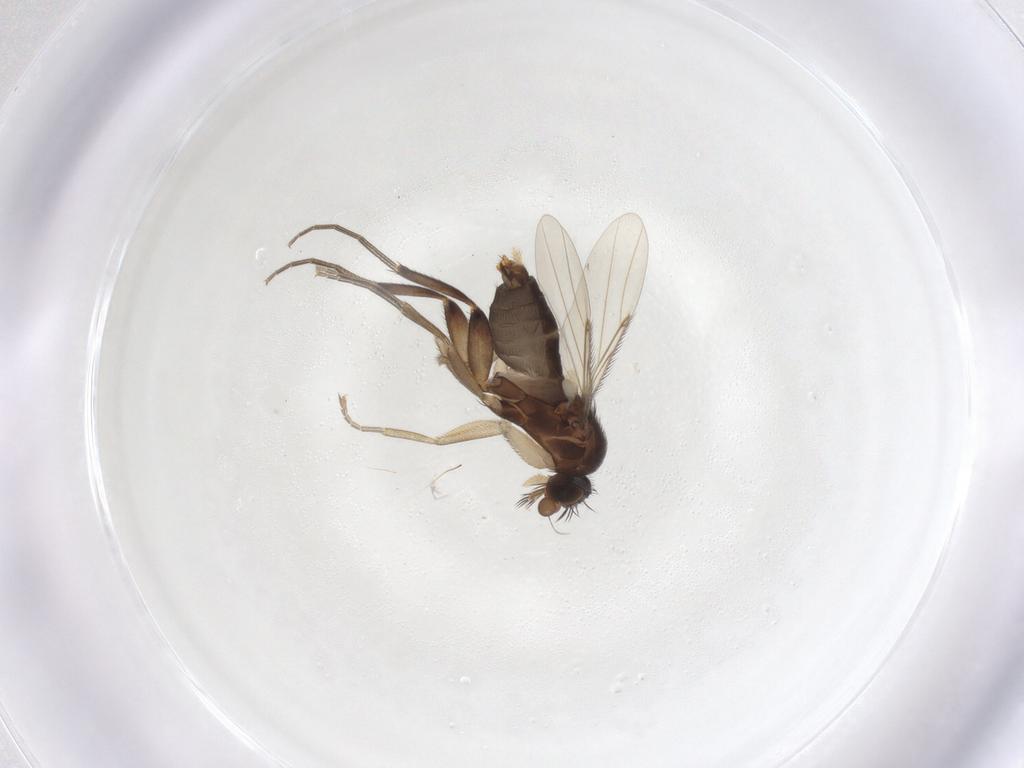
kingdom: Animalia
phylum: Arthropoda
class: Insecta
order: Diptera
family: Phoridae
